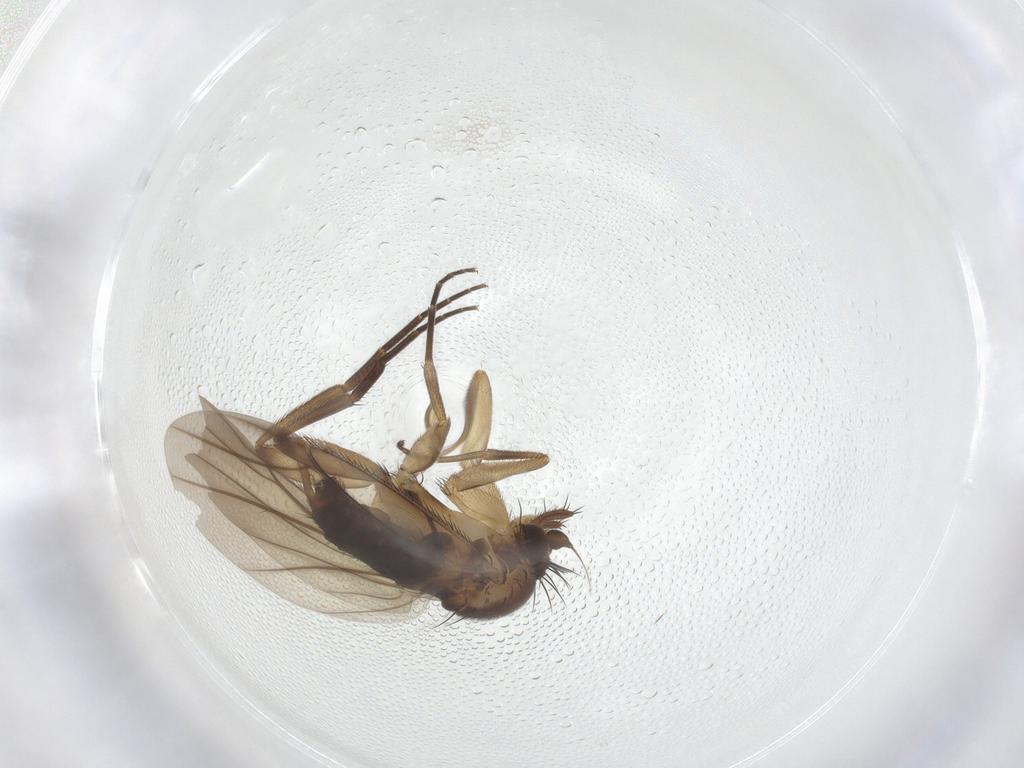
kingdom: Animalia
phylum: Arthropoda
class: Insecta
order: Diptera
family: Phoridae
